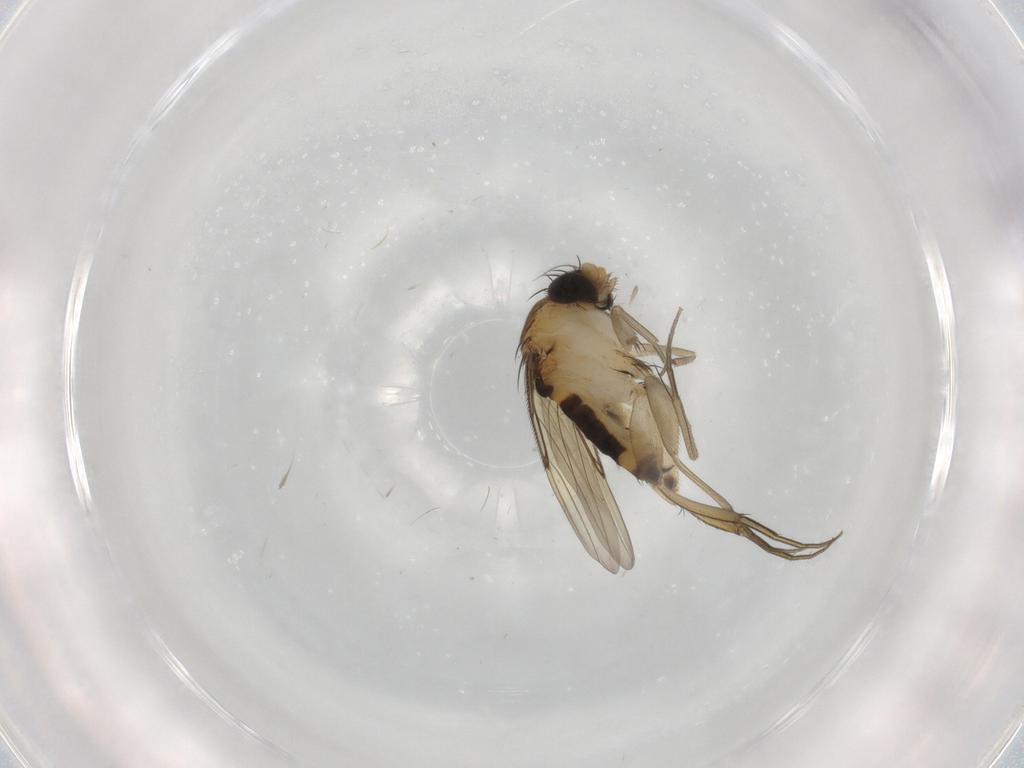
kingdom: Animalia
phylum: Arthropoda
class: Insecta
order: Diptera
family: Phoridae
